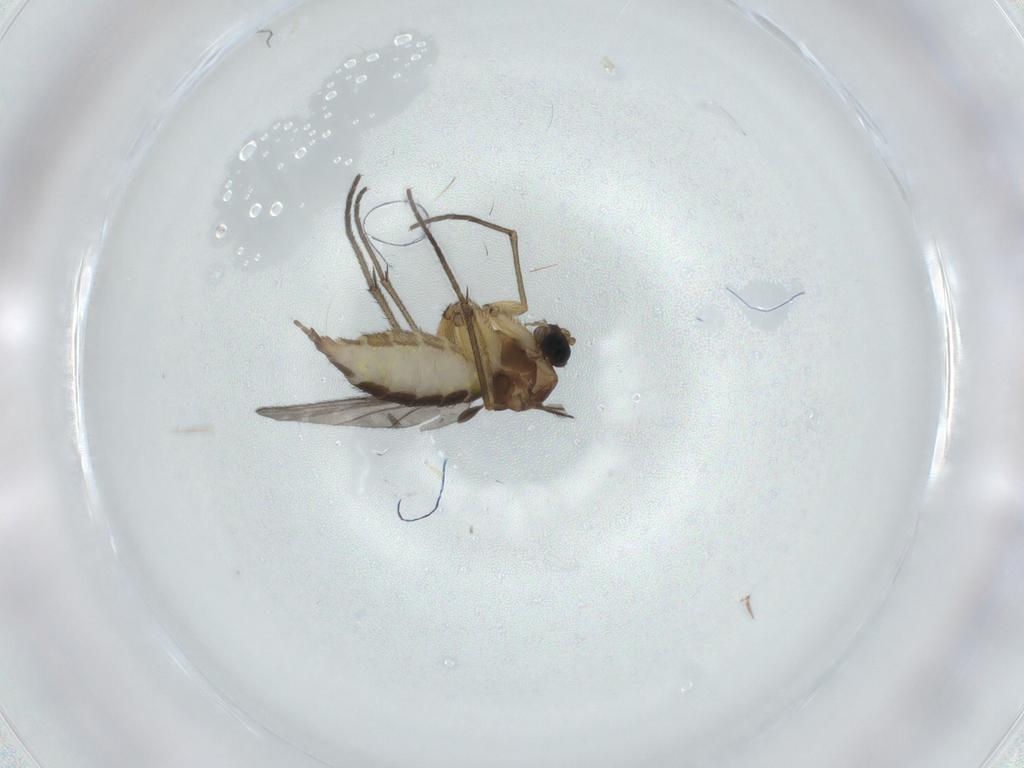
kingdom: Animalia
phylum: Arthropoda
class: Insecta
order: Diptera
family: Sciaridae
